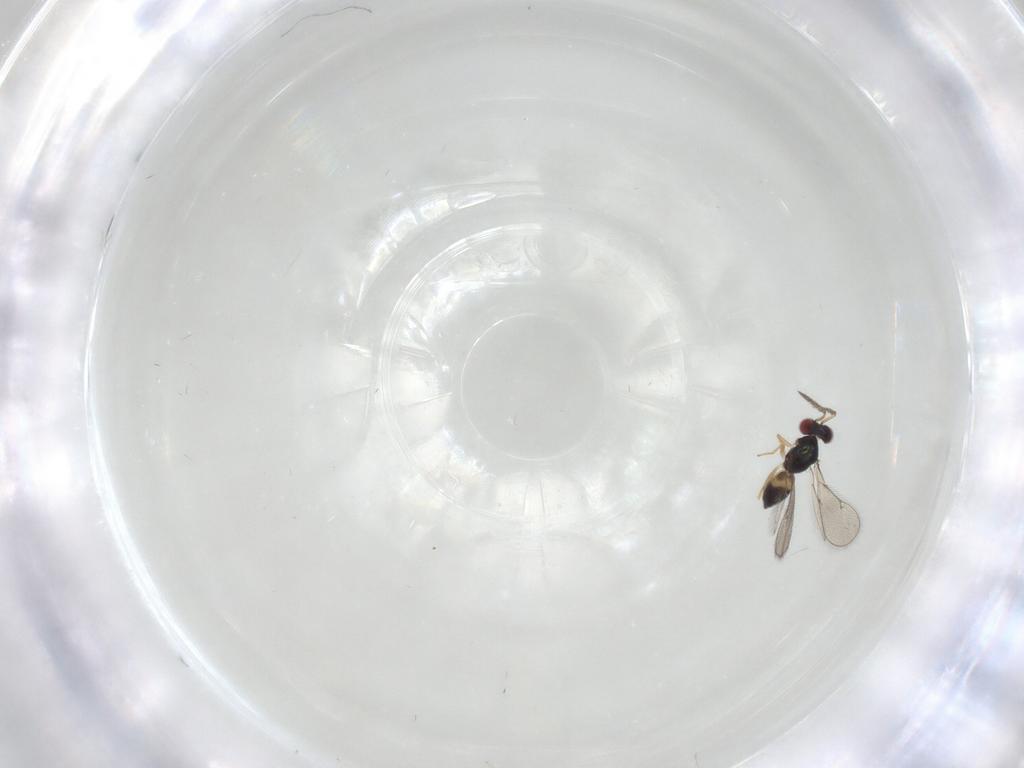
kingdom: Animalia
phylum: Arthropoda
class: Insecta
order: Hymenoptera
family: Eulophidae
